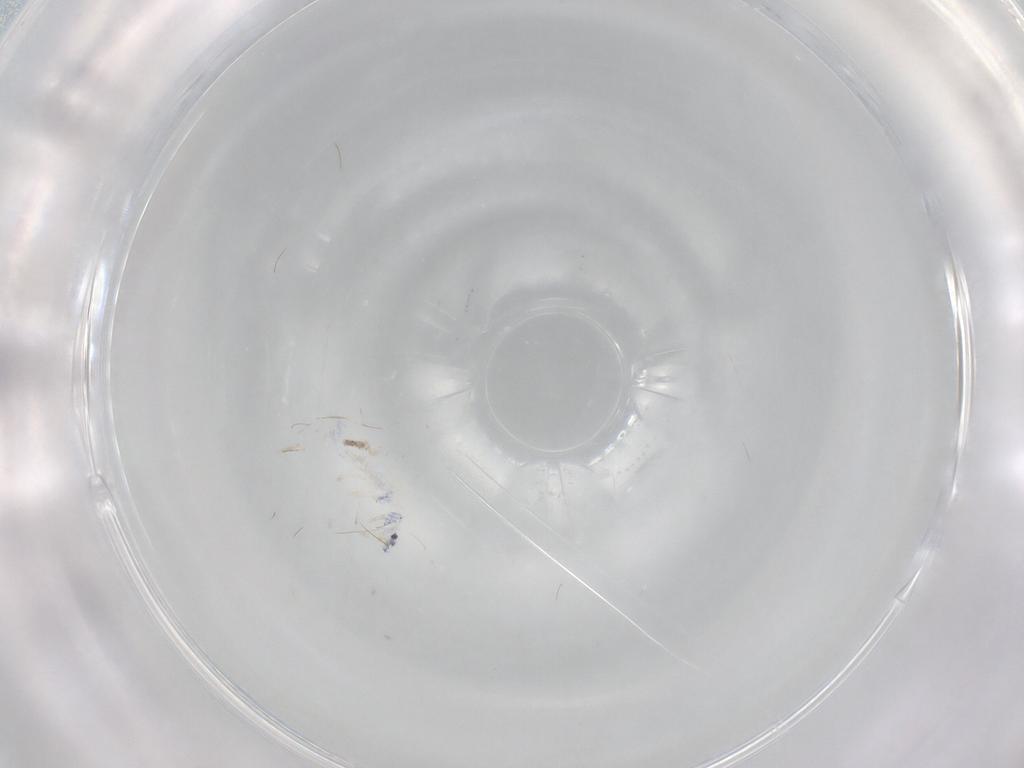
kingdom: Animalia
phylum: Arthropoda
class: Collembola
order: Entomobryomorpha
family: Entomobryidae
